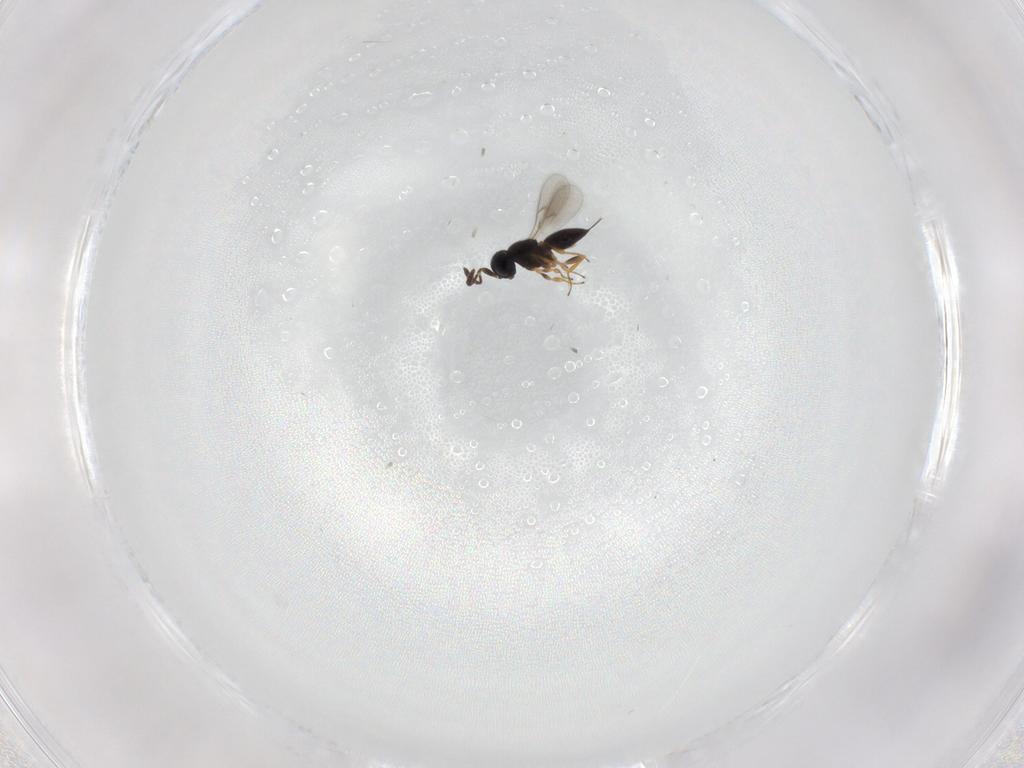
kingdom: Animalia
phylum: Arthropoda
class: Insecta
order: Hymenoptera
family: Scelionidae
